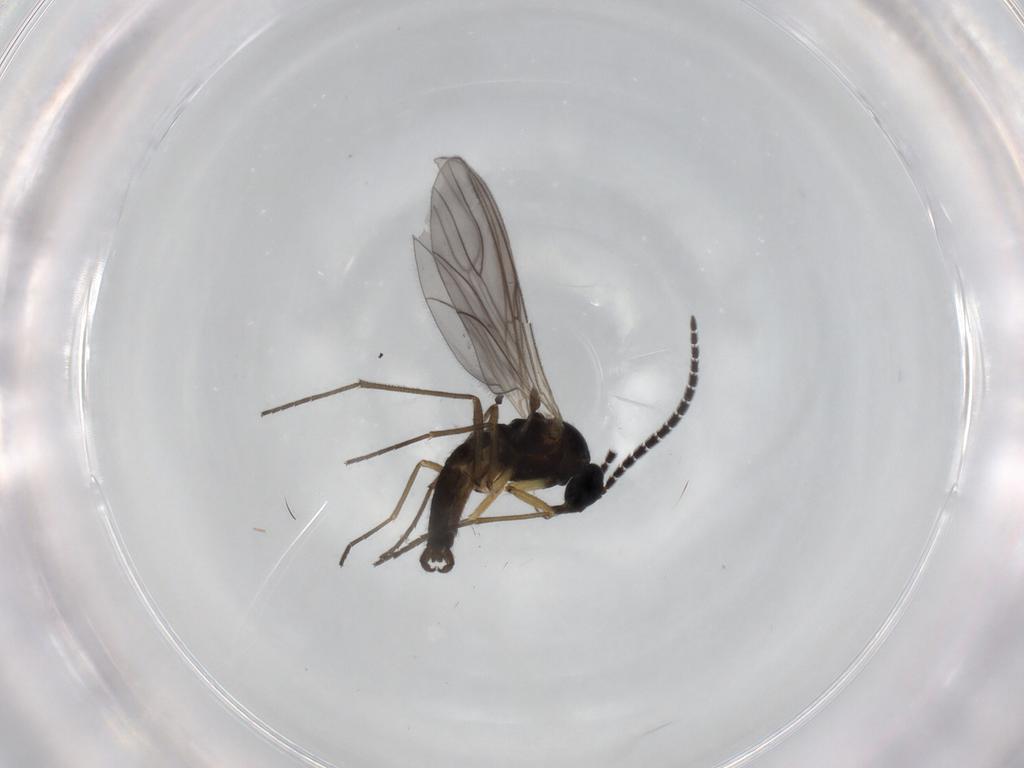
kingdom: Animalia
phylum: Arthropoda
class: Insecta
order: Diptera
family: Sciaridae
